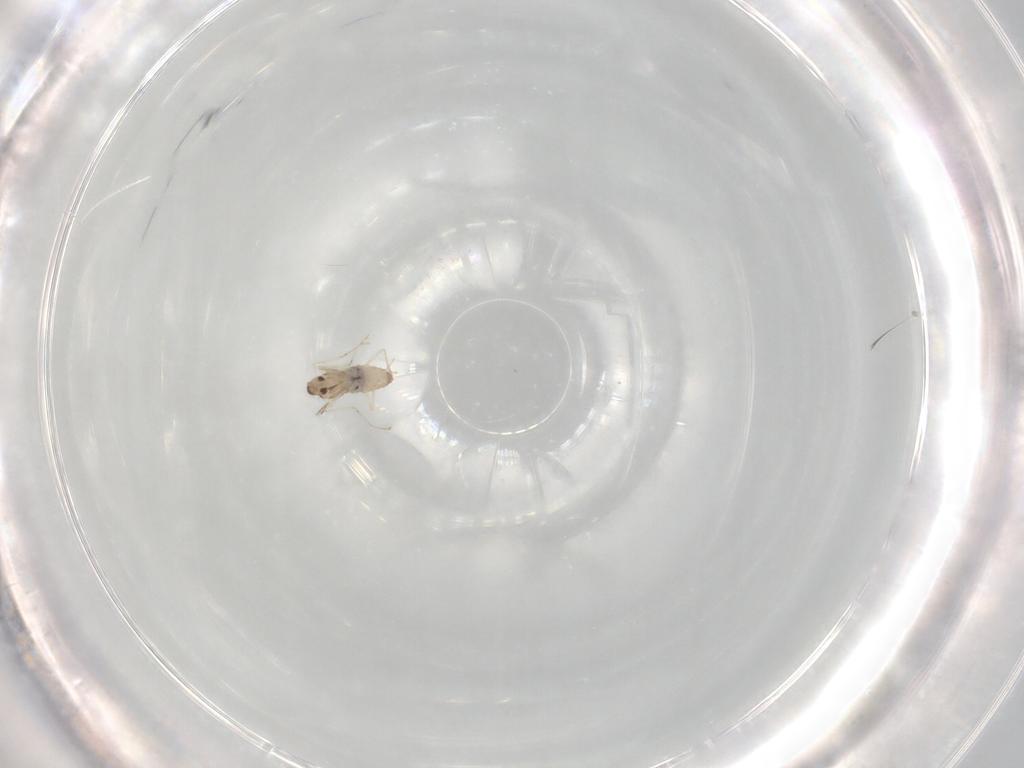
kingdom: Animalia
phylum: Arthropoda
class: Insecta
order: Diptera
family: Cecidomyiidae
